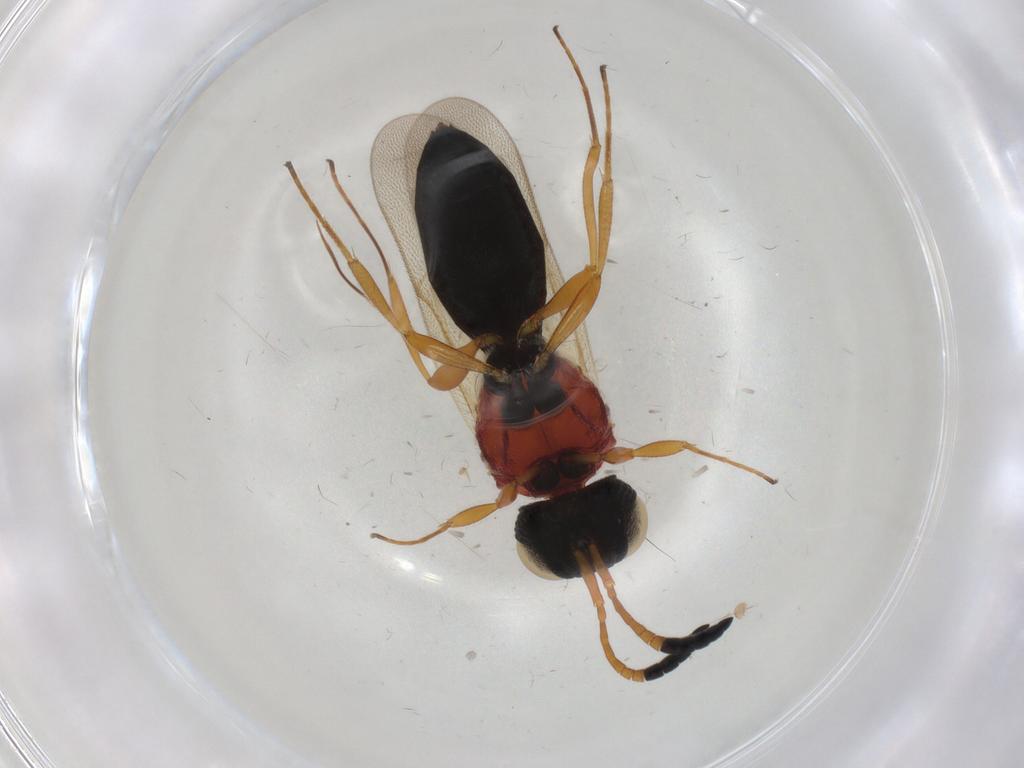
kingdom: Animalia
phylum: Arthropoda
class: Insecta
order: Hymenoptera
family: Scelionidae
